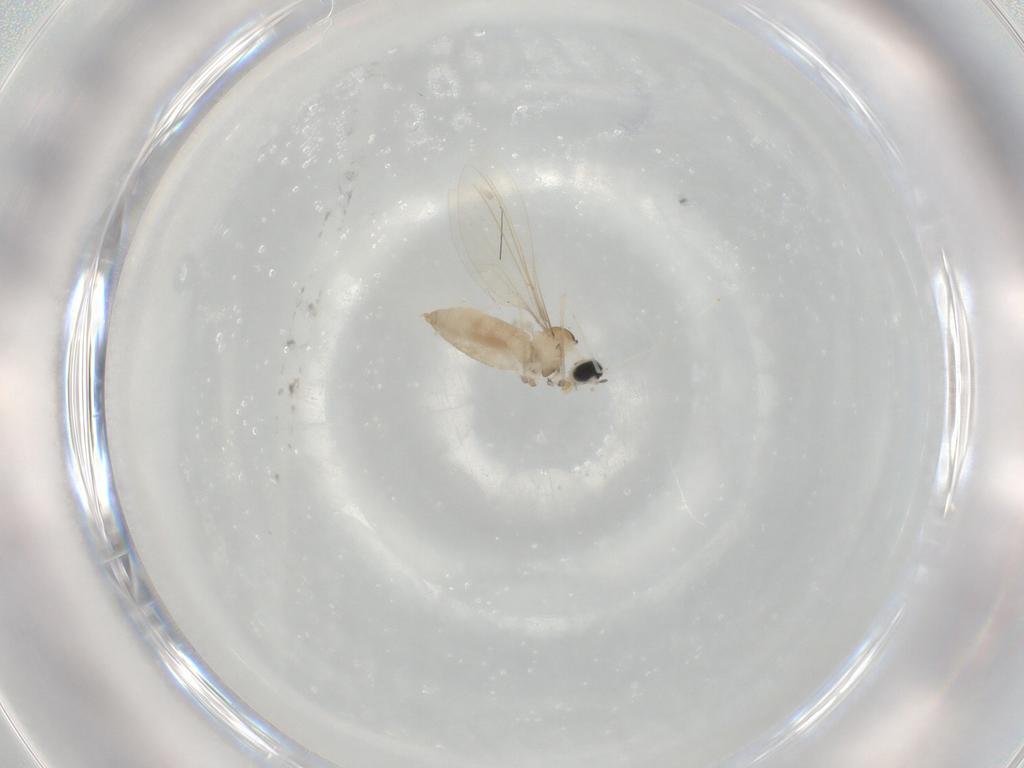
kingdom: Animalia
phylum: Arthropoda
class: Insecta
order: Diptera
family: Cecidomyiidae
